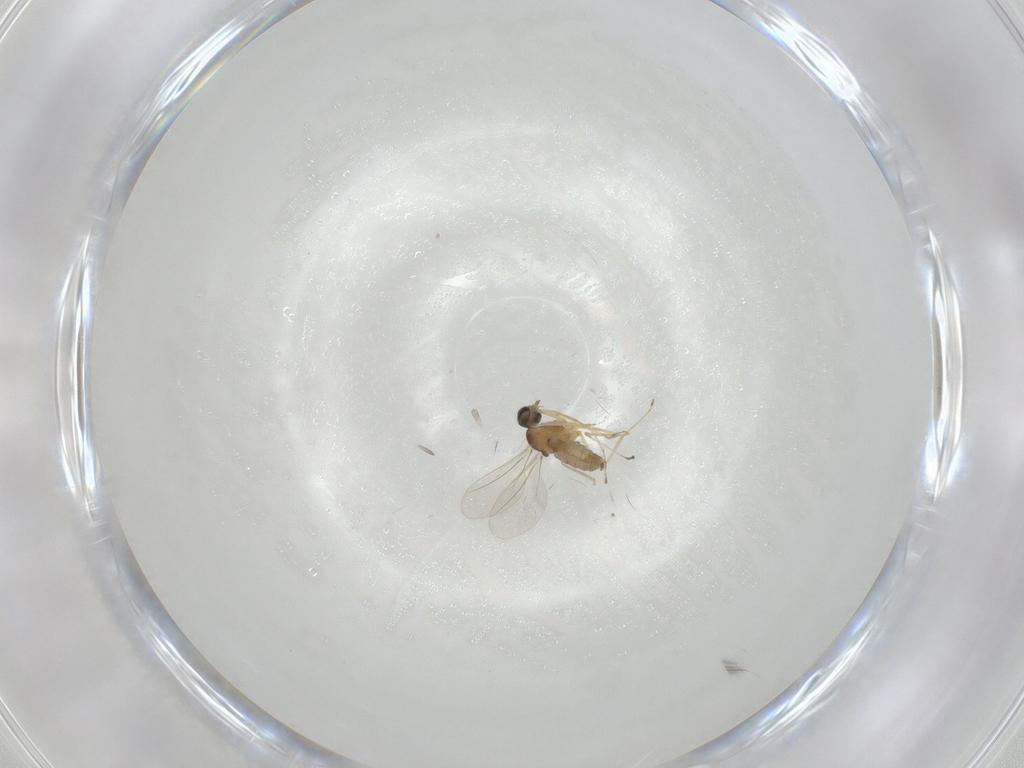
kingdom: Animalia
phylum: Arthropoda
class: Insecta
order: Diptera
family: Cecidomyiidae
